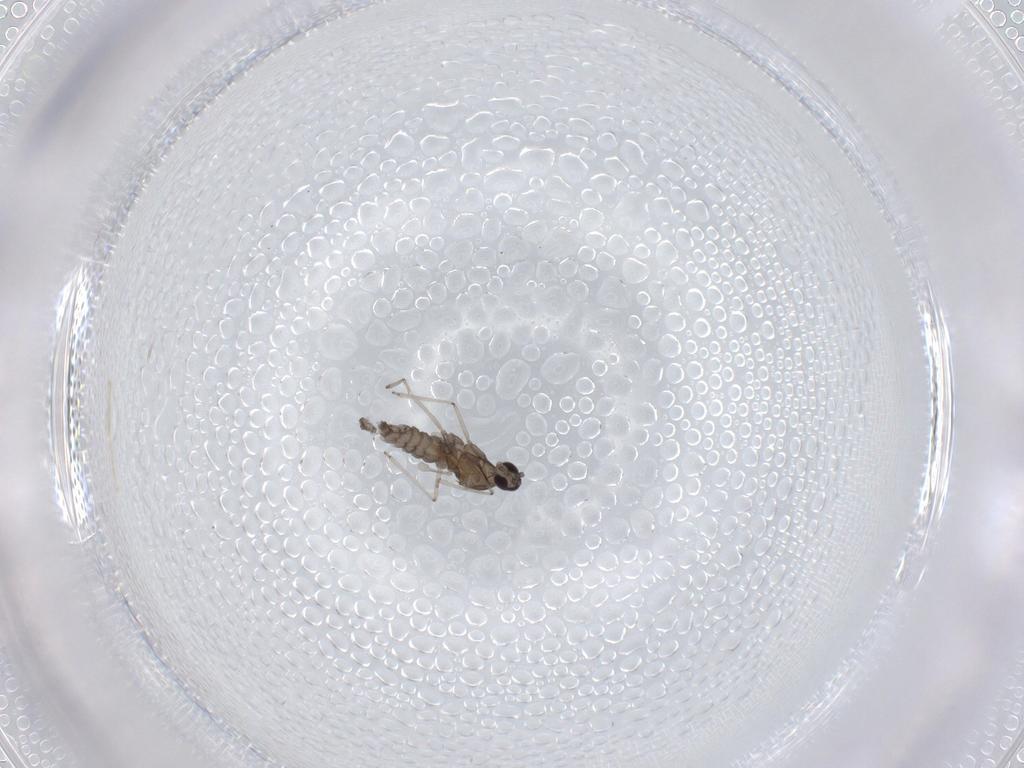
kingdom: Animalia
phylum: Arthropoda
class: Insecta
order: Diptera
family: Cecidomyiidae
